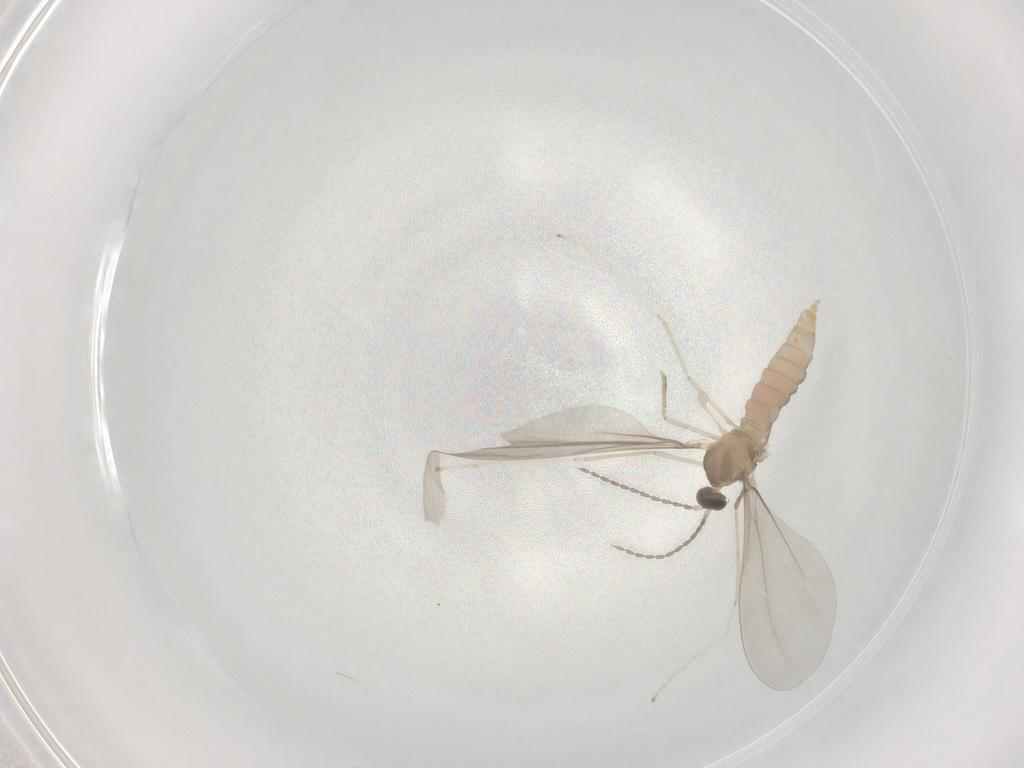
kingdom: Animalia
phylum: Arthropoda
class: Insecta
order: Diptera
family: Cecidomyiidae
